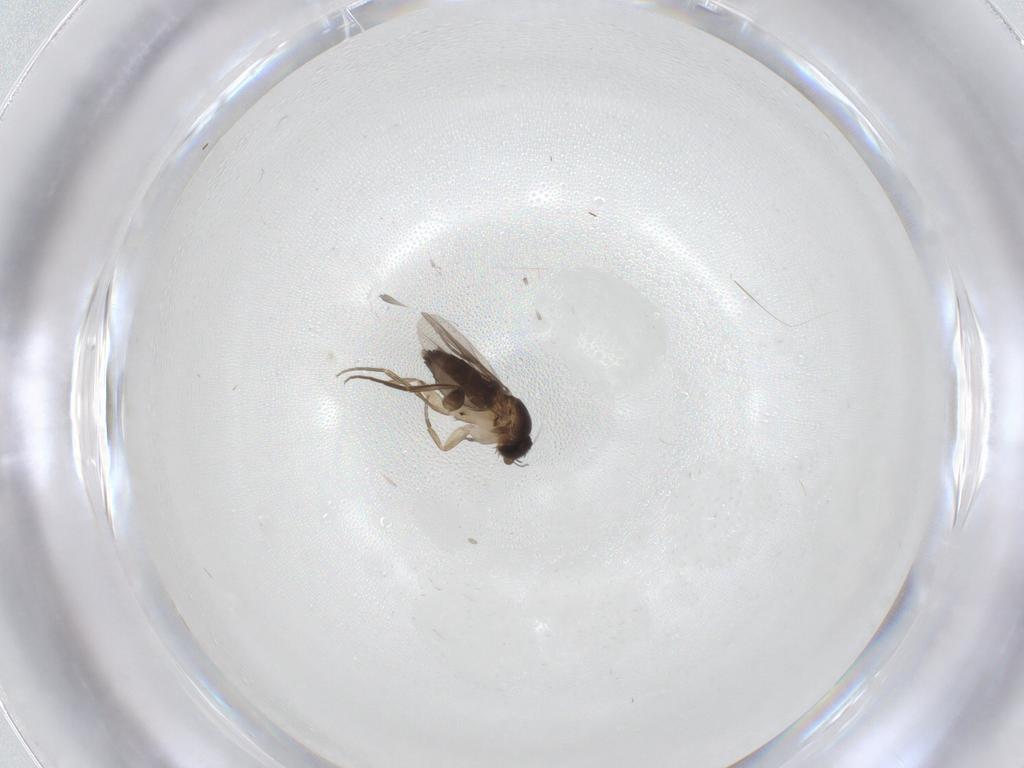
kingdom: Animalia
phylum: Arthropoda
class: Insecta
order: Diptera
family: Phoridae
